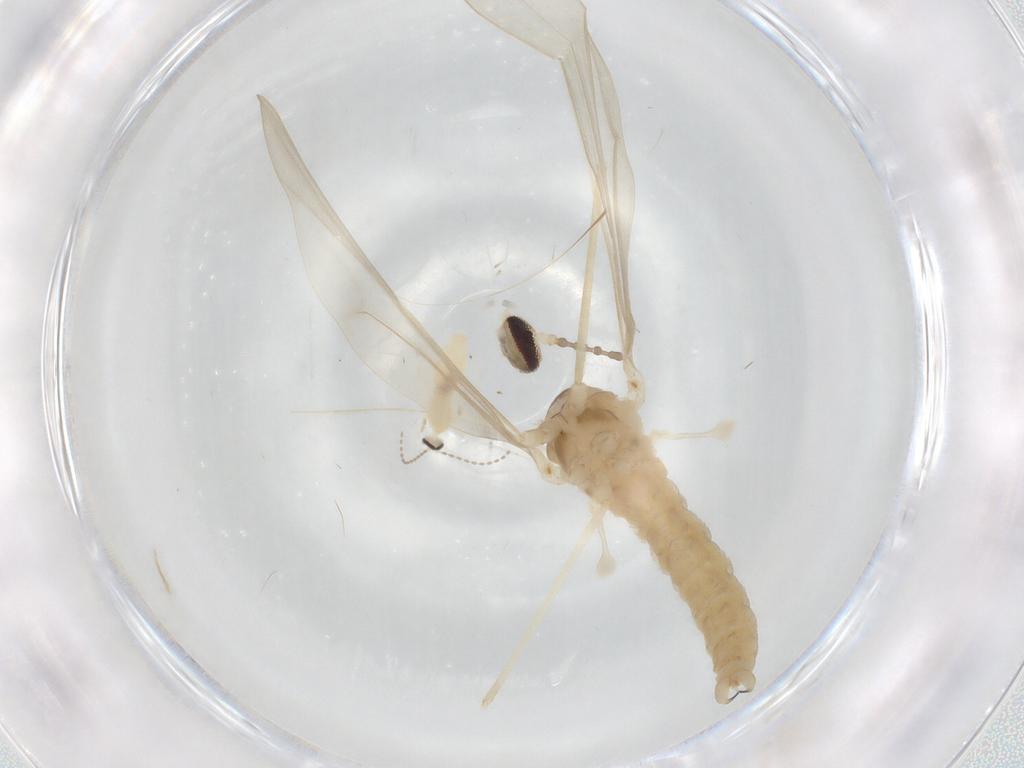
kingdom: Animalia
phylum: Arthropoda
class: Insecta
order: Diptera
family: Cecidomyiidae
